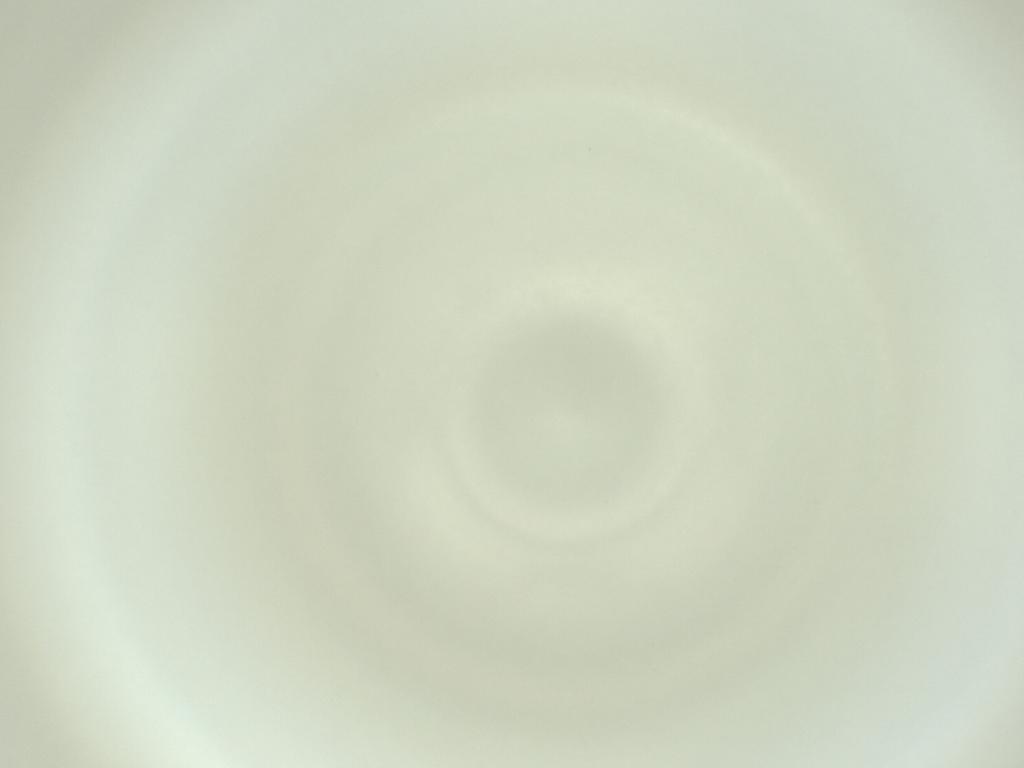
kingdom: Animalia
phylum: Arthropoda
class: Insecta
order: Diptera
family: Cecidomyiidae
